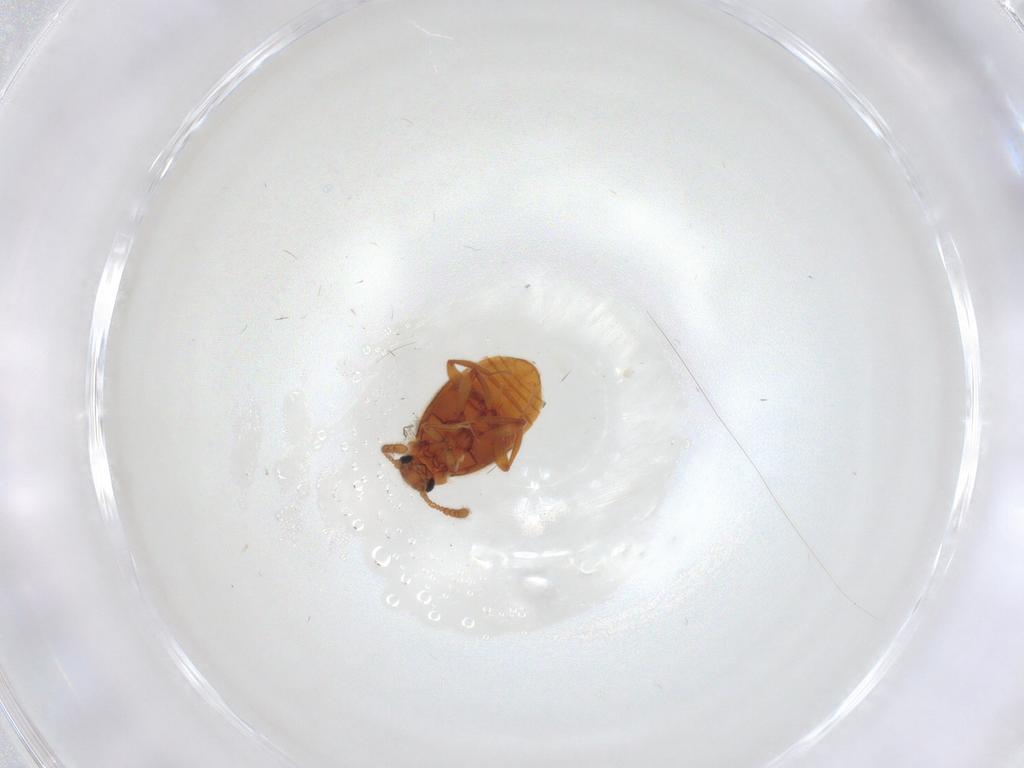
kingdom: Animalia
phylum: Arthropoda
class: Insecta
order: Coleoptera
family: Staphylinidae
